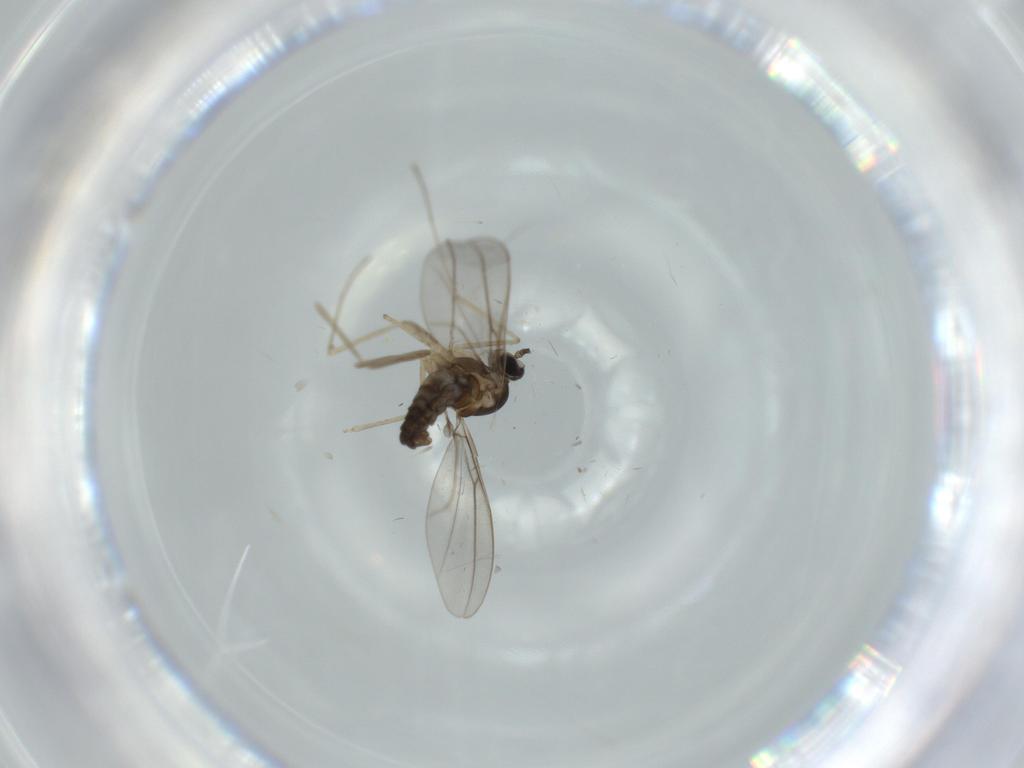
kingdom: Animalia
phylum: Arthropoda
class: Insecta
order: Diptera
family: Cecidomyiidae
